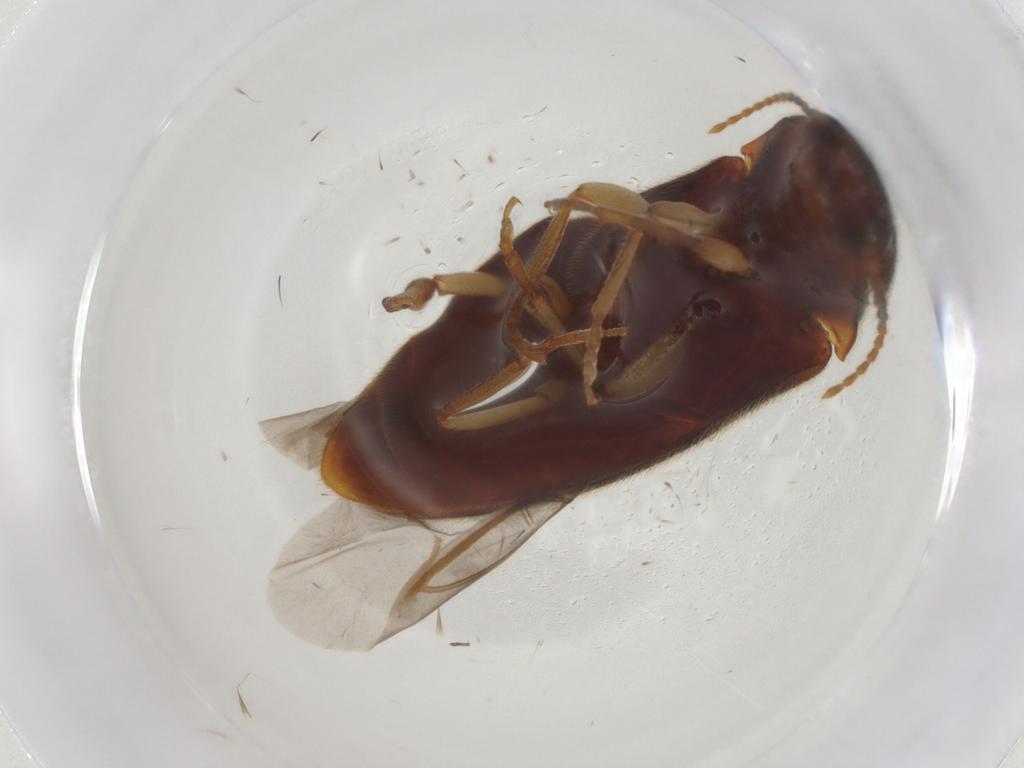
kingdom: Animalia
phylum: Arthropoda
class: Insecta
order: Coleoptera
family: Elateridae
